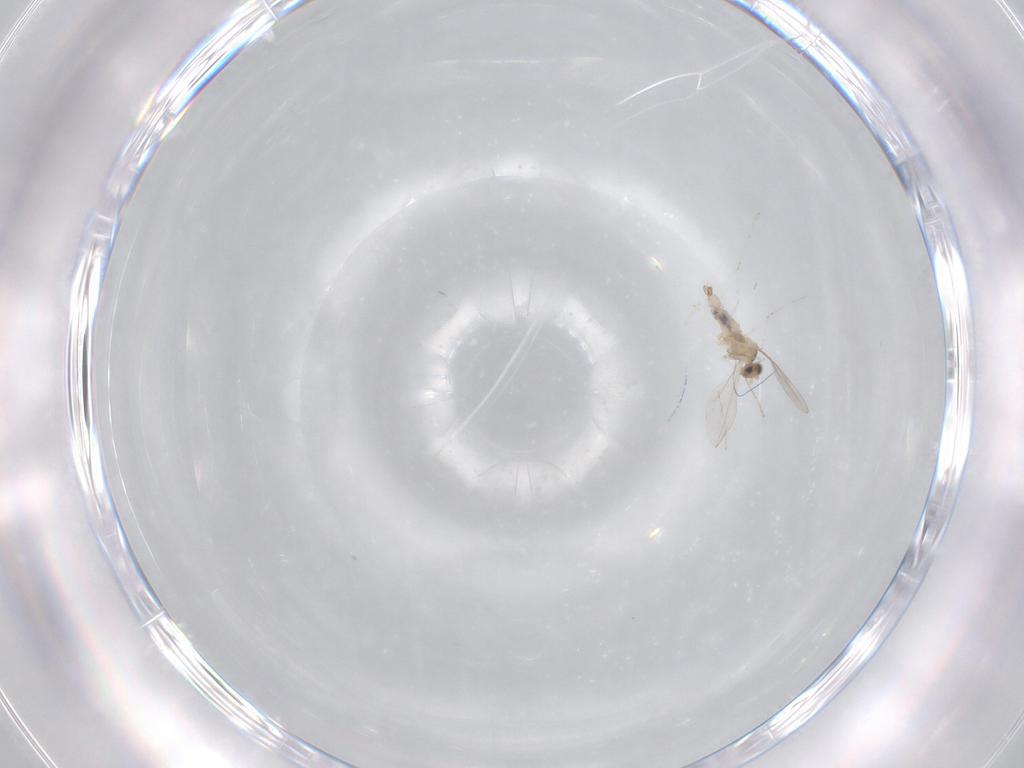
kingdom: Animalia
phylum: Arthropoda
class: Insecta
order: Diptera
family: Cecidomyiidae
